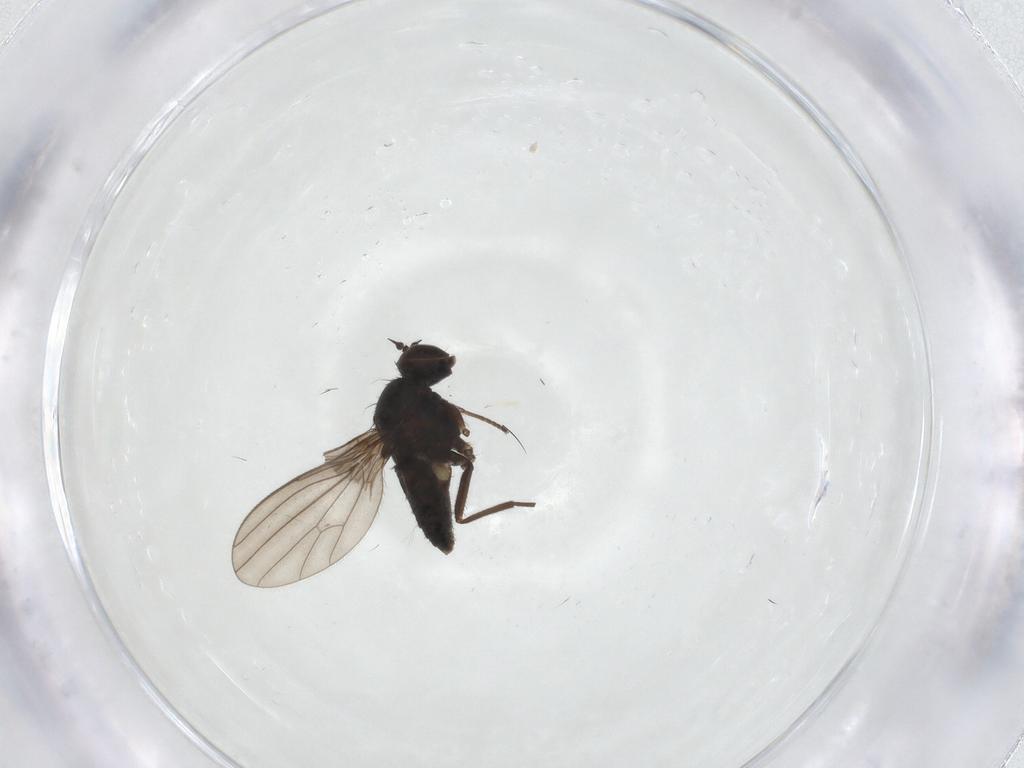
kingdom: Animalia
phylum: Arthropoda
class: Insecta
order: Diptera
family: Dolichopodidae
